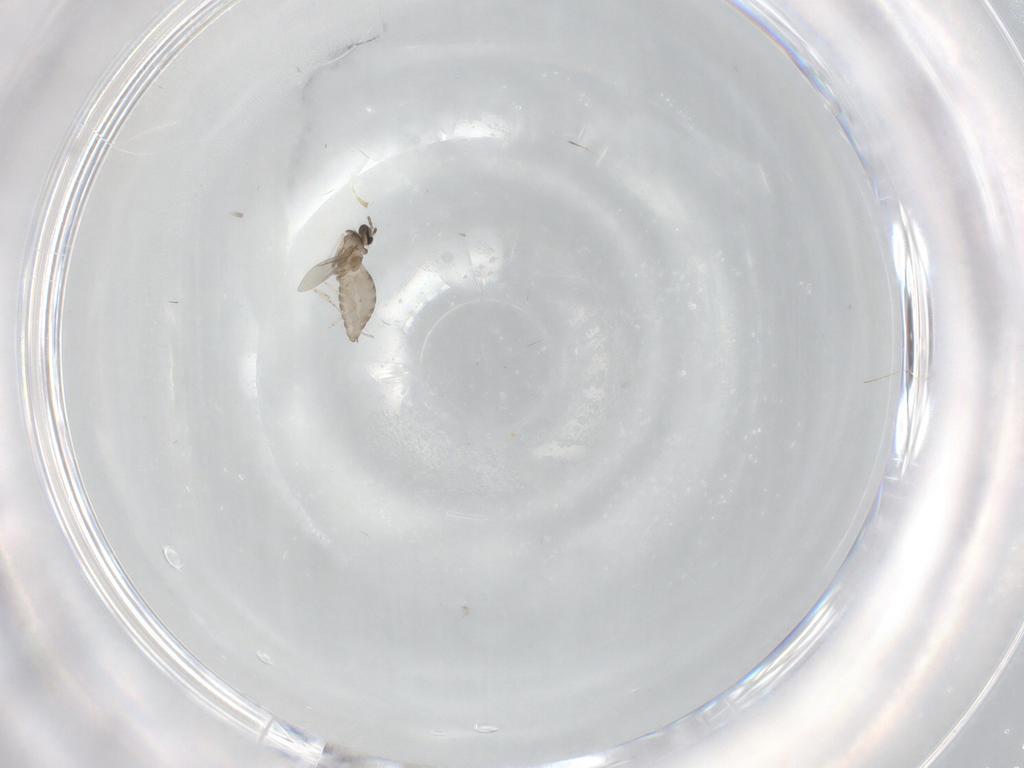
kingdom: Animalia
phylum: Arthropoda
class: Insecta
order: Diptera
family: Cecidomyiidae
